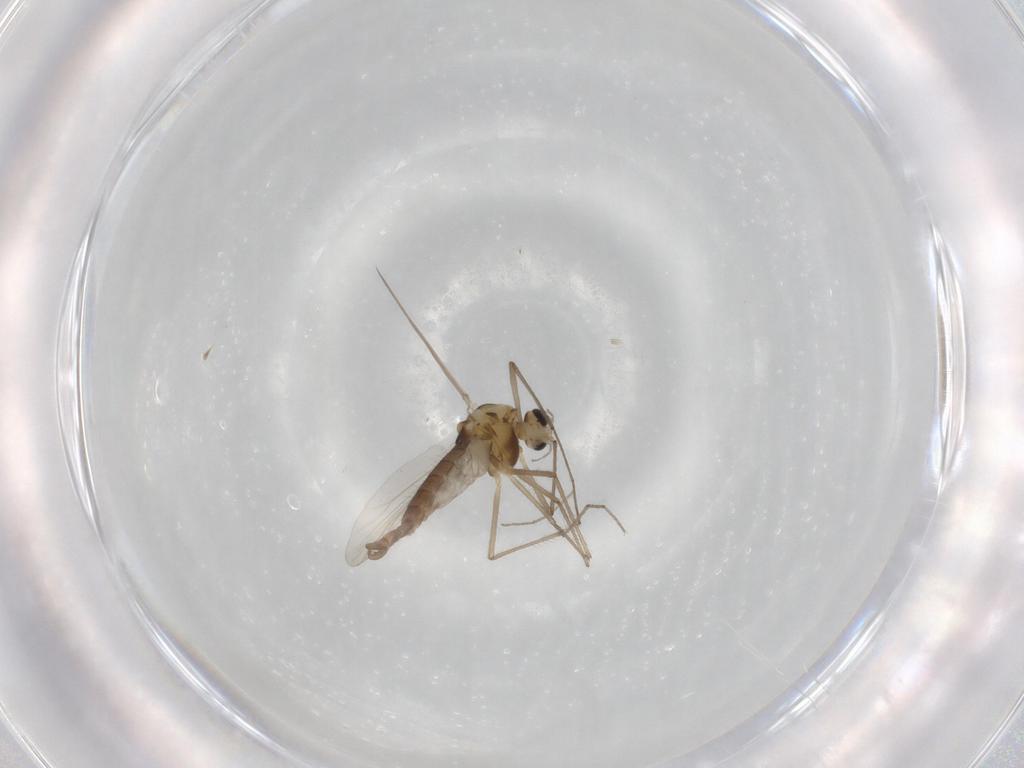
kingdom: Animalia
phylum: Arthropoda
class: Insecta
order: Diptera
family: Chironomidae
